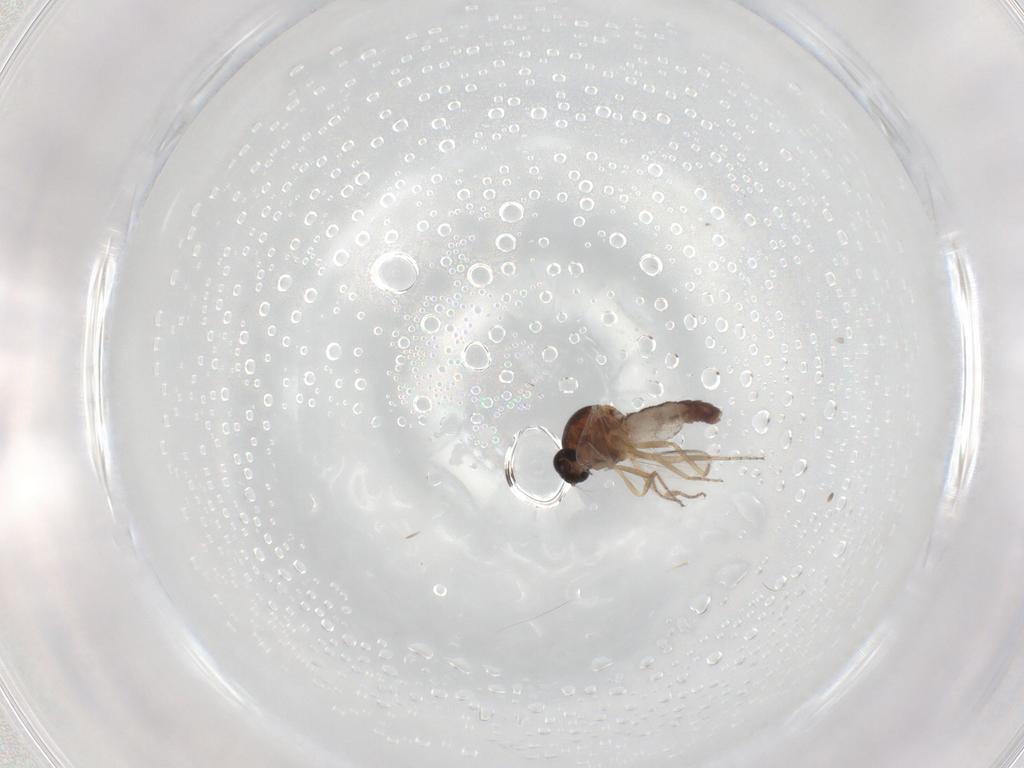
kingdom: Animalia
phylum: Arthropoda
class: Insecta
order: Diptera
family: Ceratopogonidae
